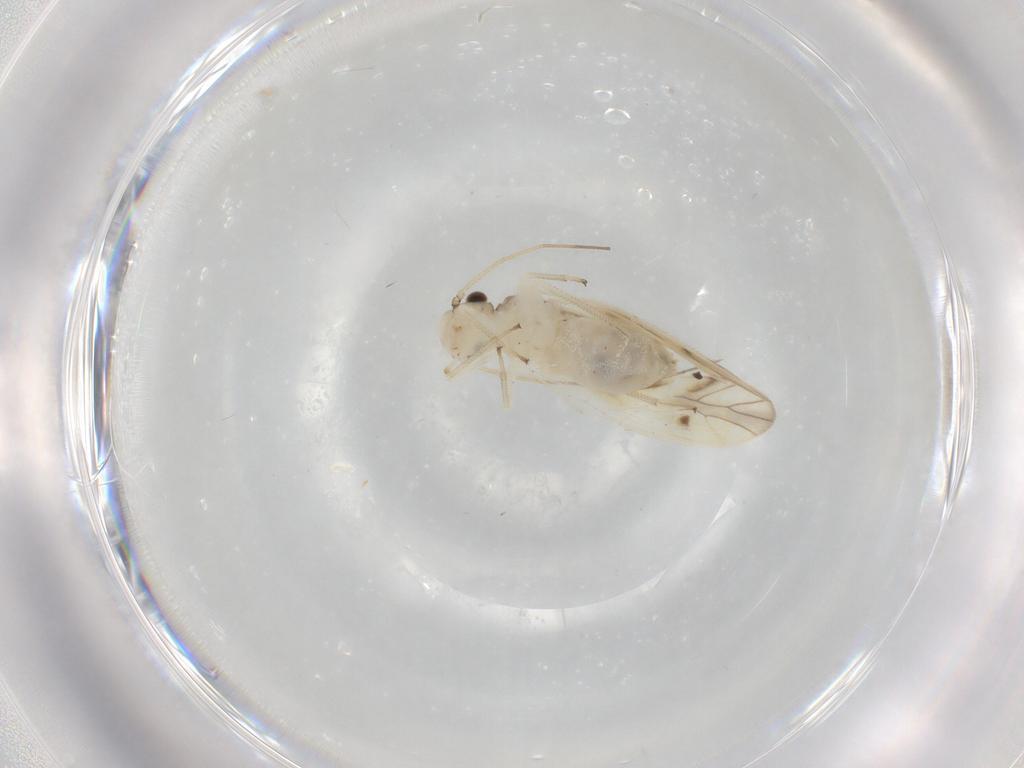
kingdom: Animalia
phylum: Arthropoda
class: Insecta
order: Psocodea
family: Caeciliusidae
